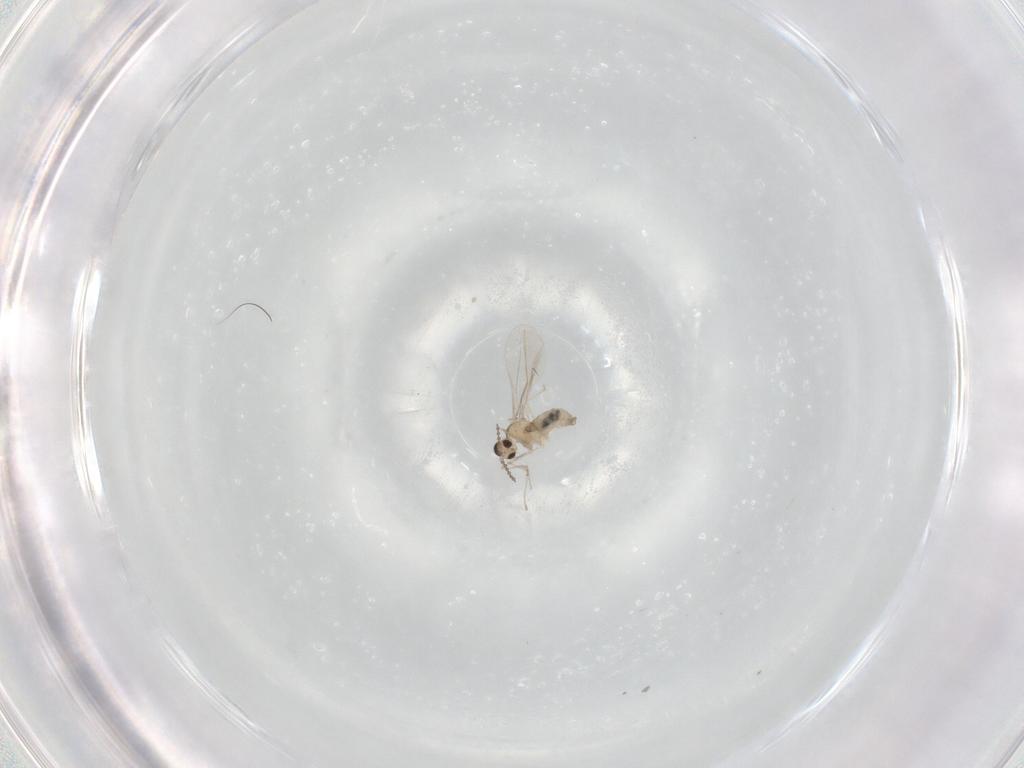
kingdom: Animalia
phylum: Arthropoda
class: Insecta
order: Diptera
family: Cecidomyiidae
